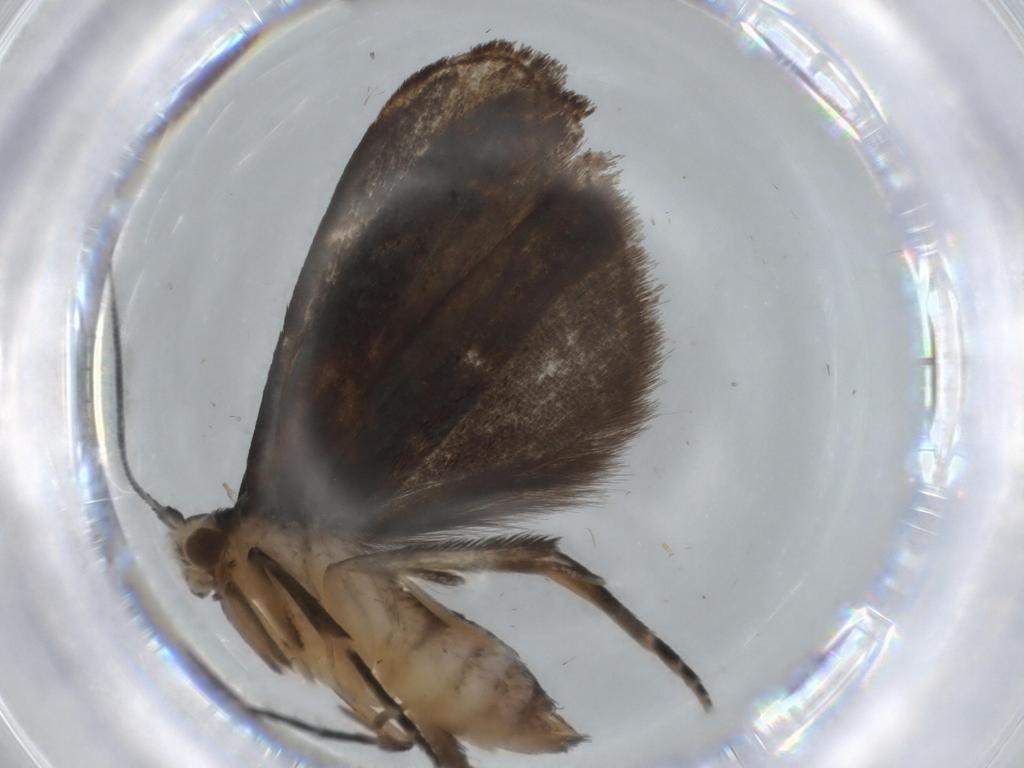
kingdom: Animalia
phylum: Arthropoda
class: Insecta
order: Lepidoptera
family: Dryadaulidae
